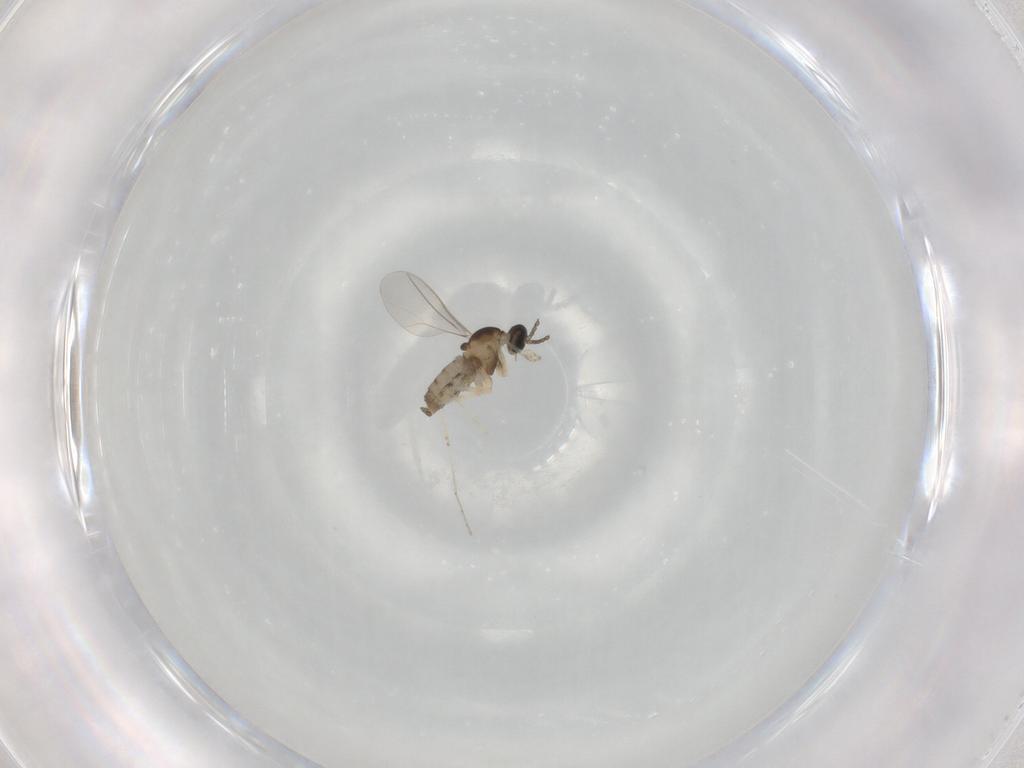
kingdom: Animalia
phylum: Arthropoda
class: Insecta
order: Diptera
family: Cecidomyiidae
